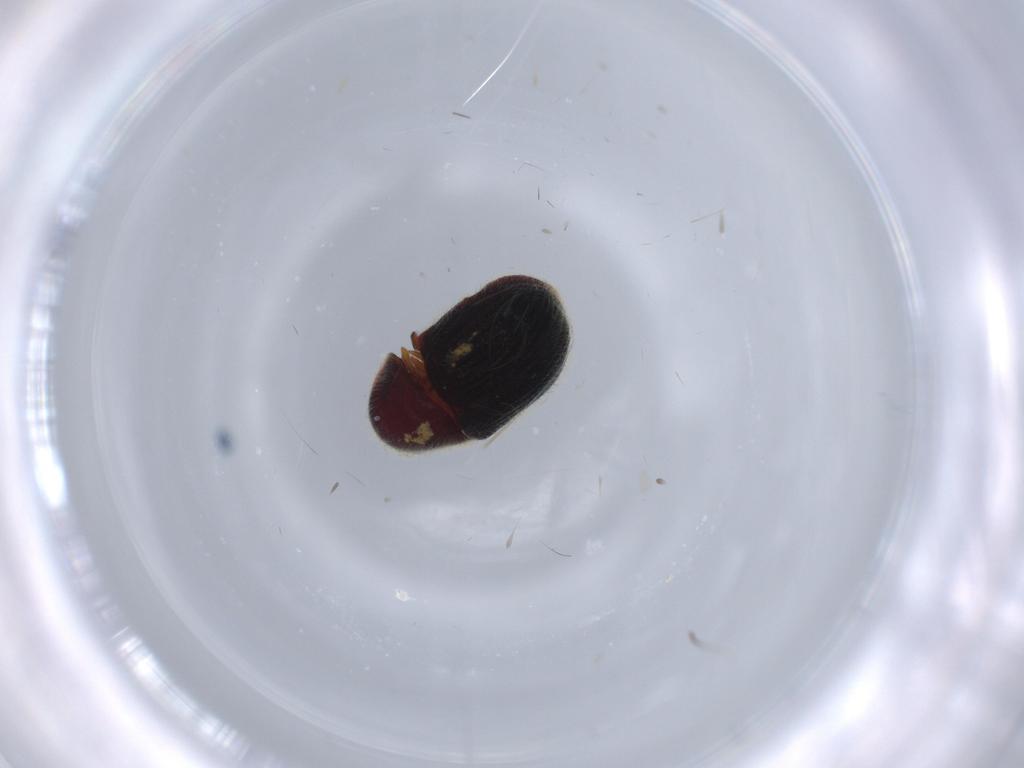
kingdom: Animalia
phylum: Arthropoda
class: Insecta
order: Coleoptera
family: Ptinidae
